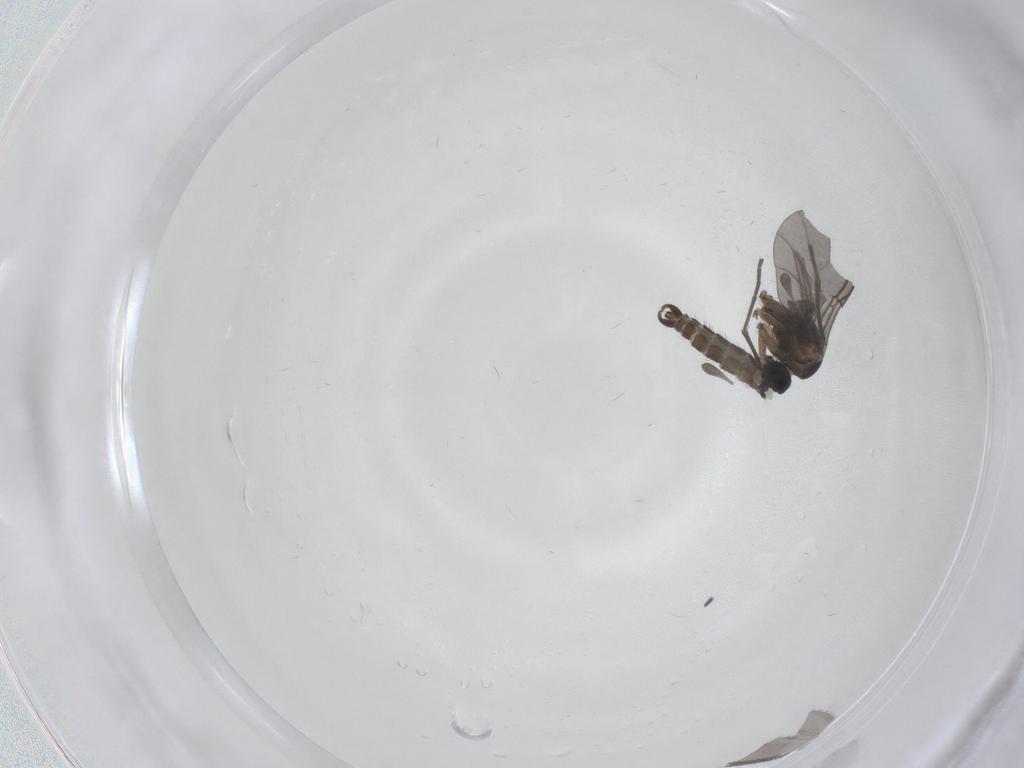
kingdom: Animalia
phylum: Arthropoda
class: Insecta
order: Diptera
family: Sciaridae
